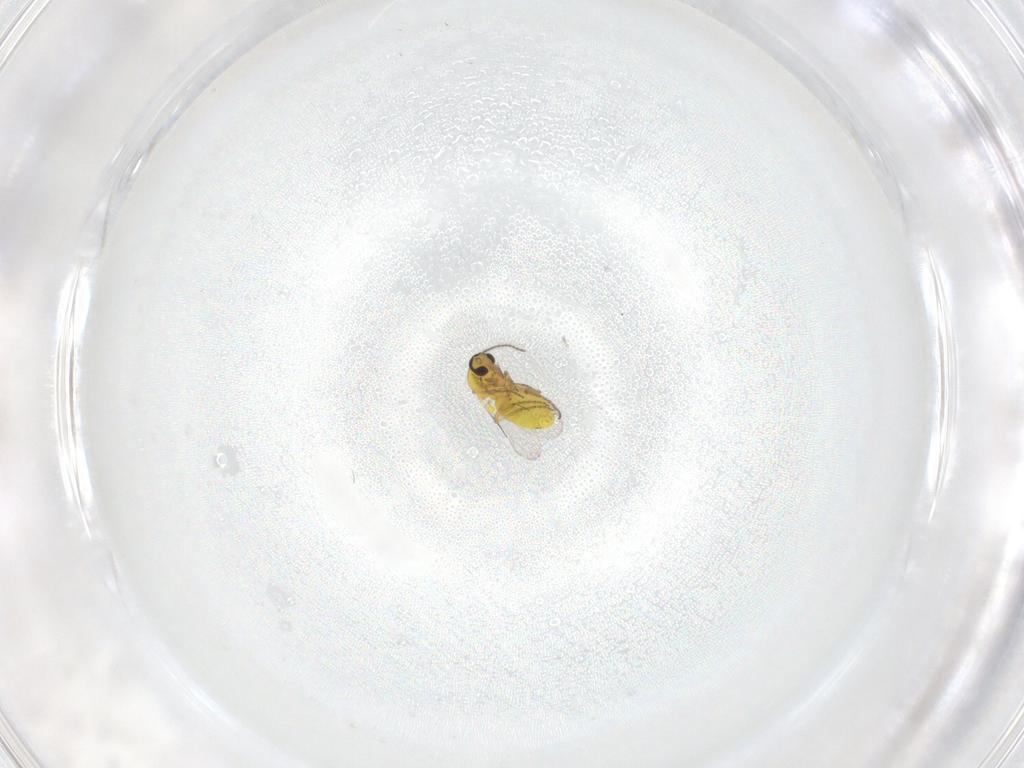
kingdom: Animalia
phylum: Arthropoda
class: Insecta
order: Diptera
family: Ceratopogonidae
